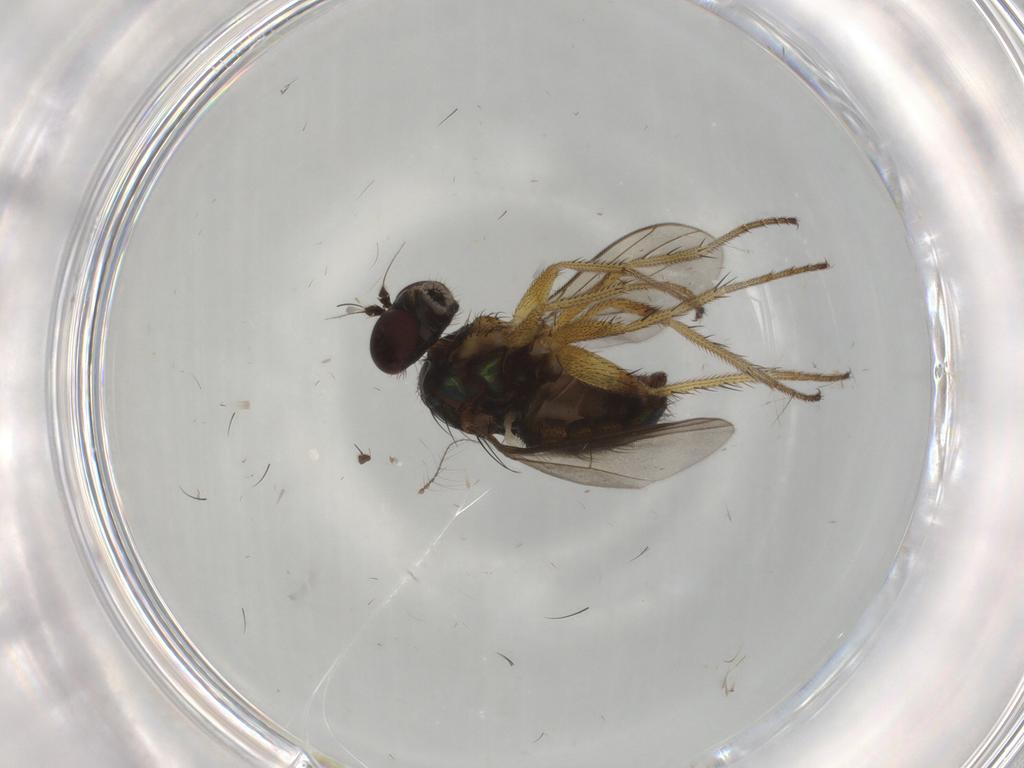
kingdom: Animalia
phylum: Arthropoda
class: Insecta
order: Diptera
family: Dolichopodidae
